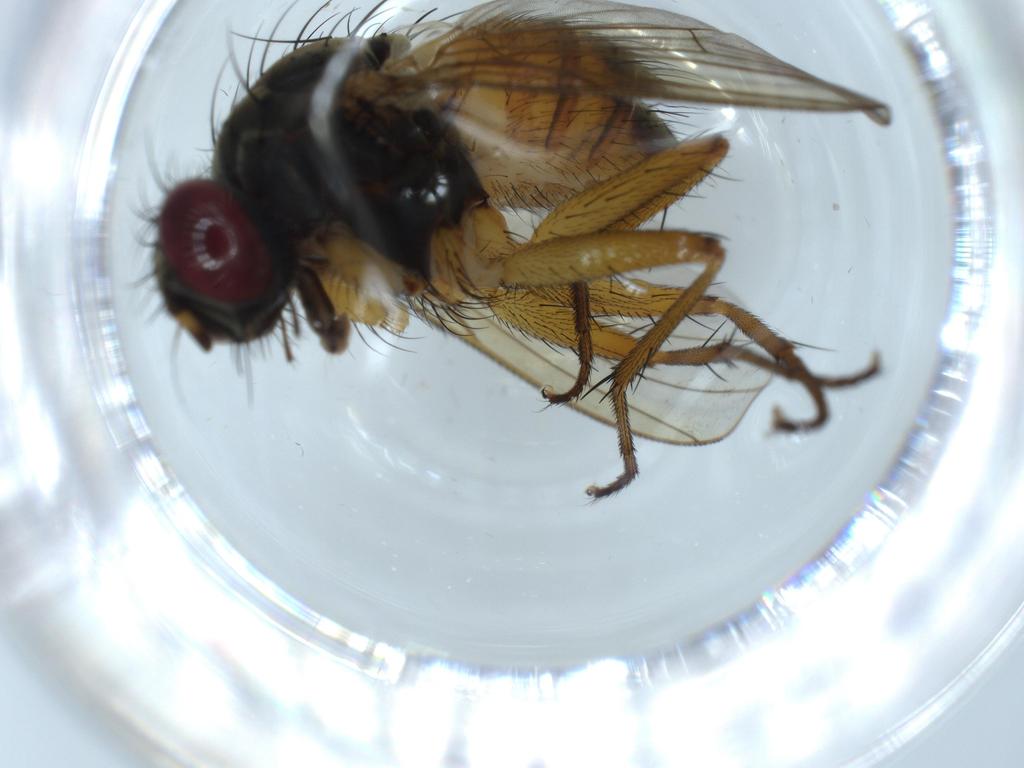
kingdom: Animalia
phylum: Arthropoda
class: Insecta
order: Diptera
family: Muscidae
